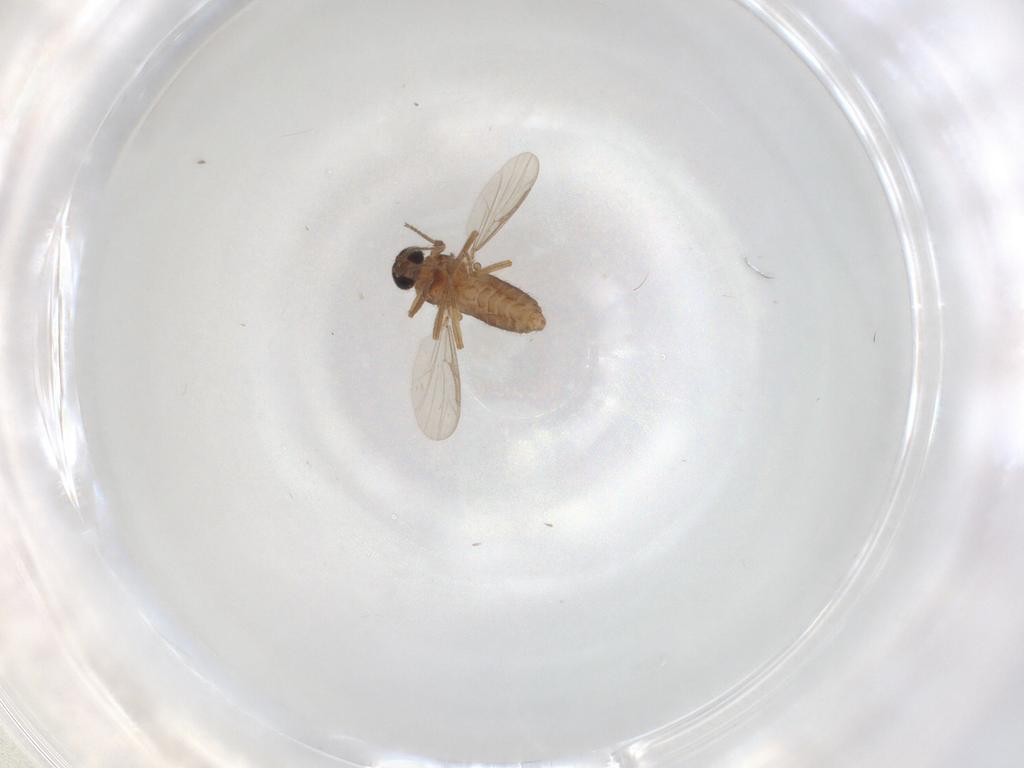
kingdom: Animalia
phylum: Arthropoda
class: Insecta
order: Diptera
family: Ceratopogonidae
